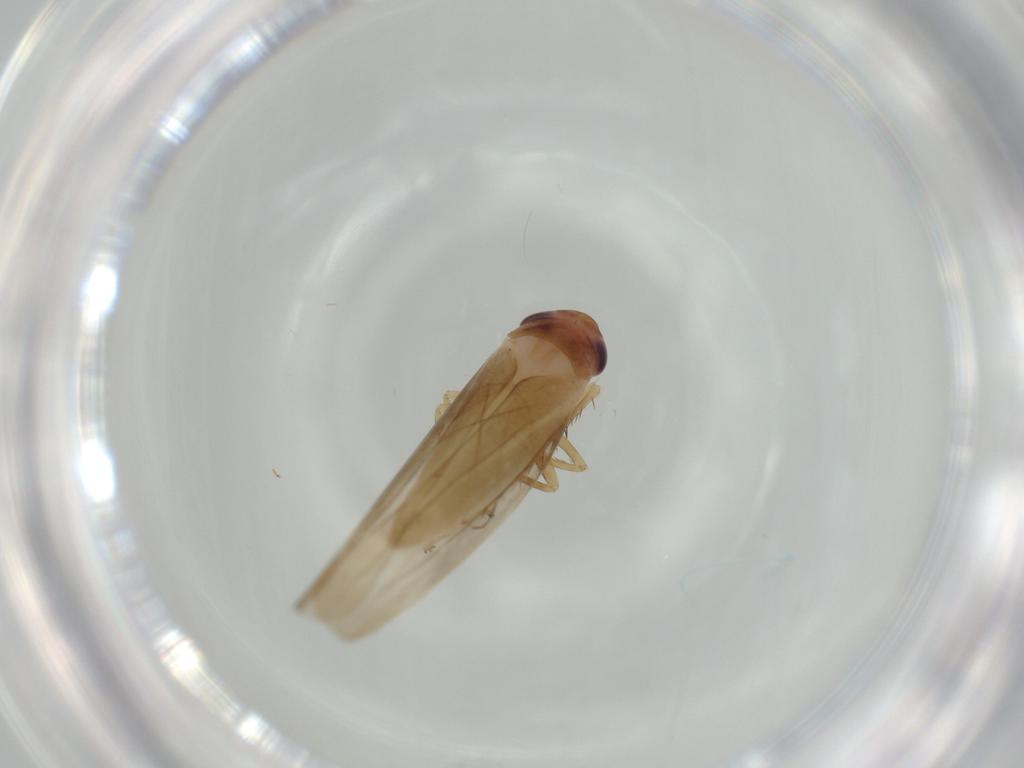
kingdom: Animalia
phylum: Arthropoda
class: Insecta
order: Hemiptera
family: Cicadellidae
